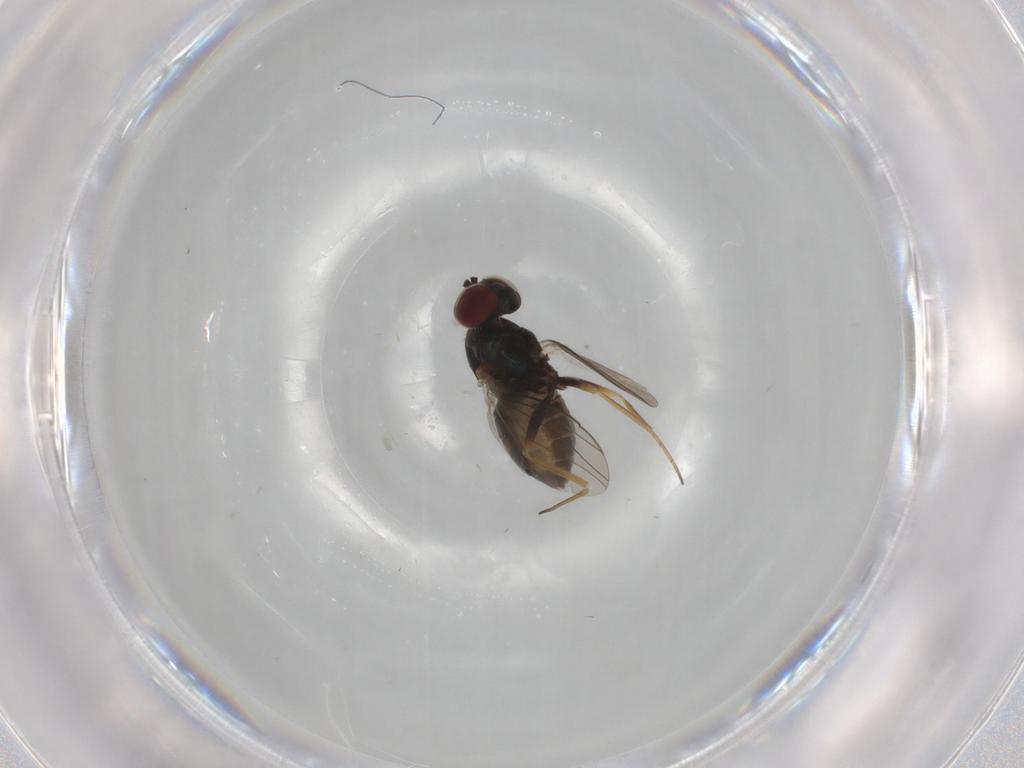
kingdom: Animalia
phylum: Arthropoda
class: Insecta
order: Diptera
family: Dolichopodidae
